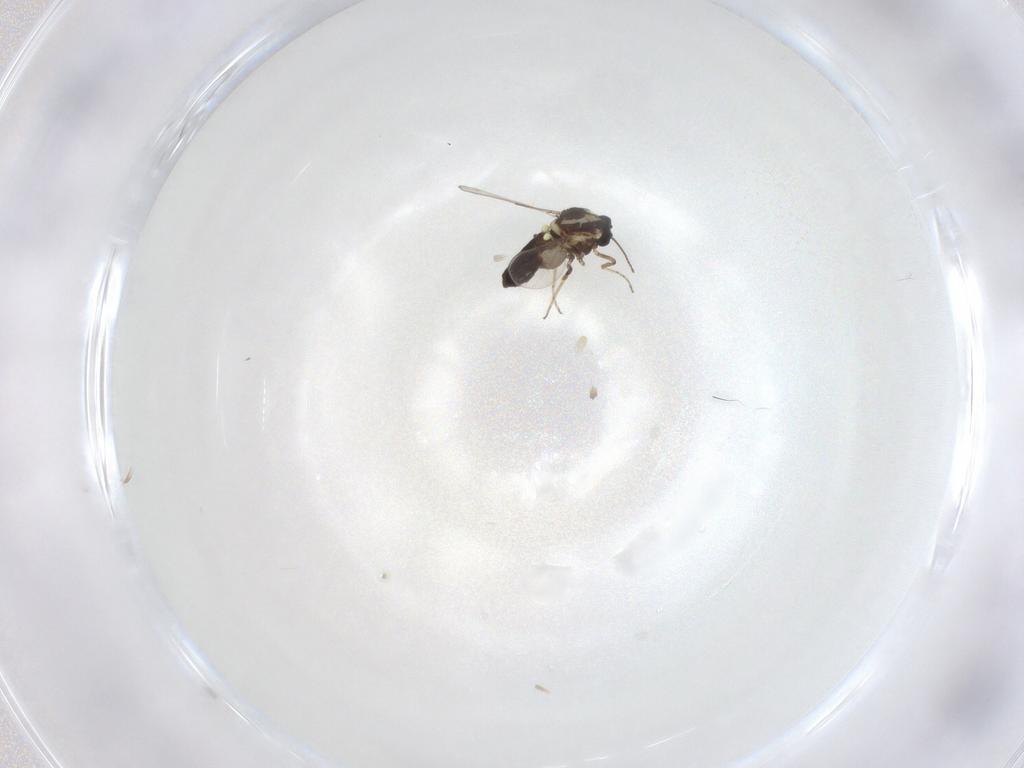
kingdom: Animalia
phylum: Arthropoda
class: Insecta
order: Diptera
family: Ceratopogonidae
